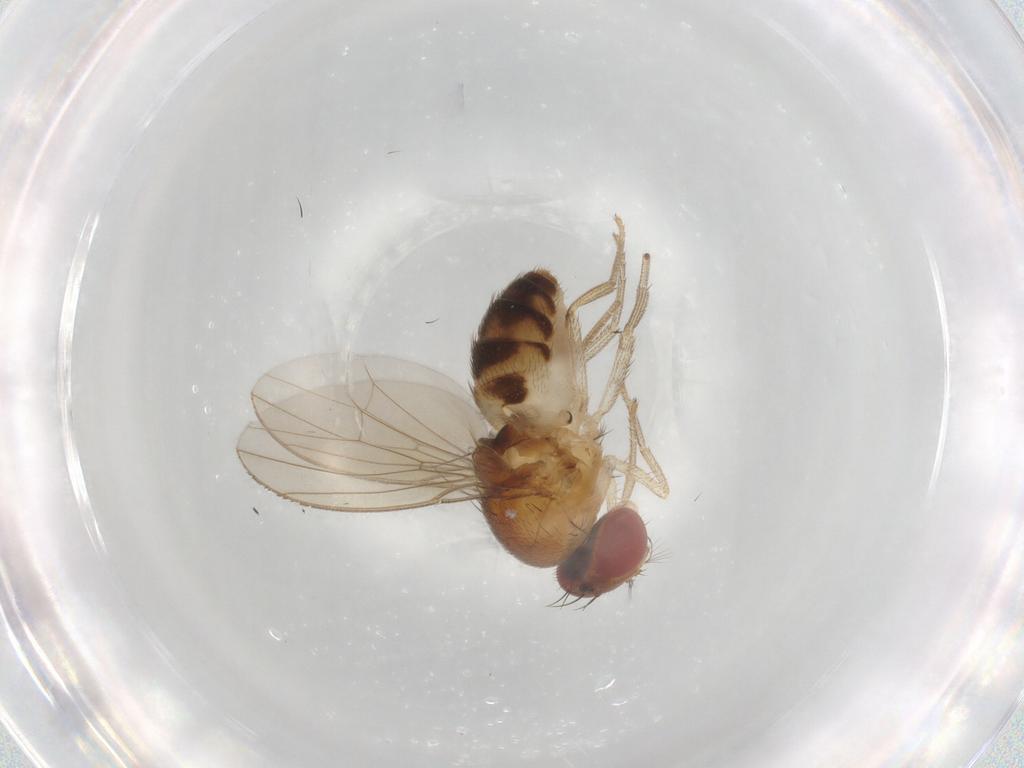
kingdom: Animalia
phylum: Arthropoda
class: Insecta
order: Diptera
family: Drosophilidae
